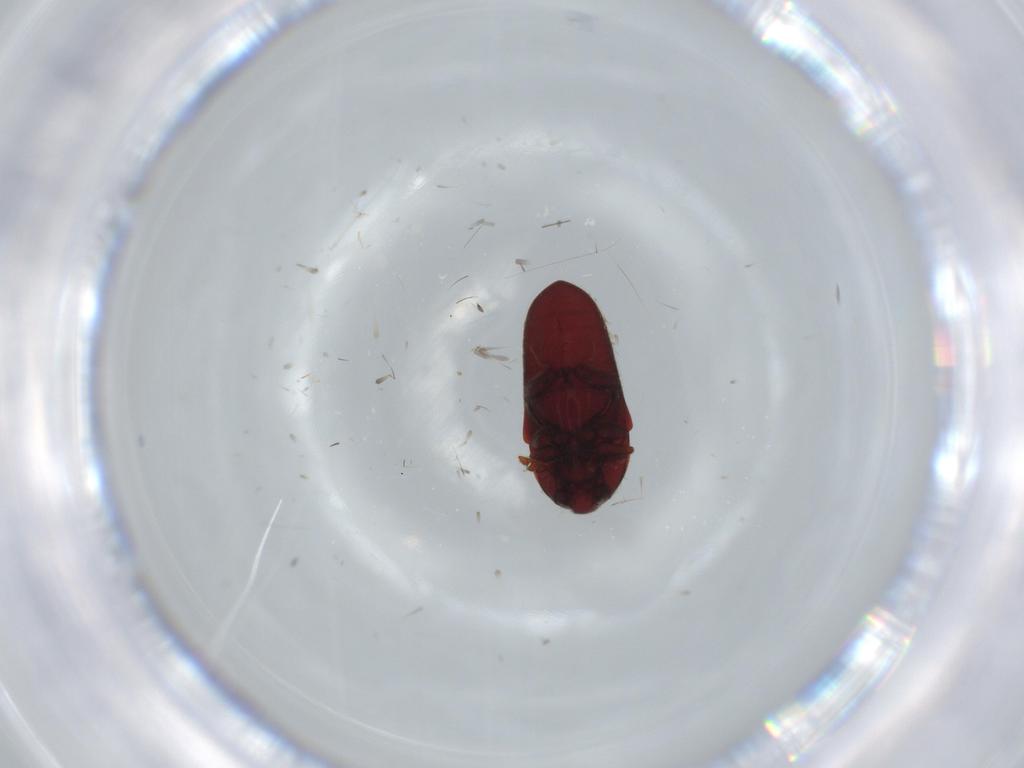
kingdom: Animalia
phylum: Arthropoda
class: Insecta
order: Coleoptera
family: Throscidae
